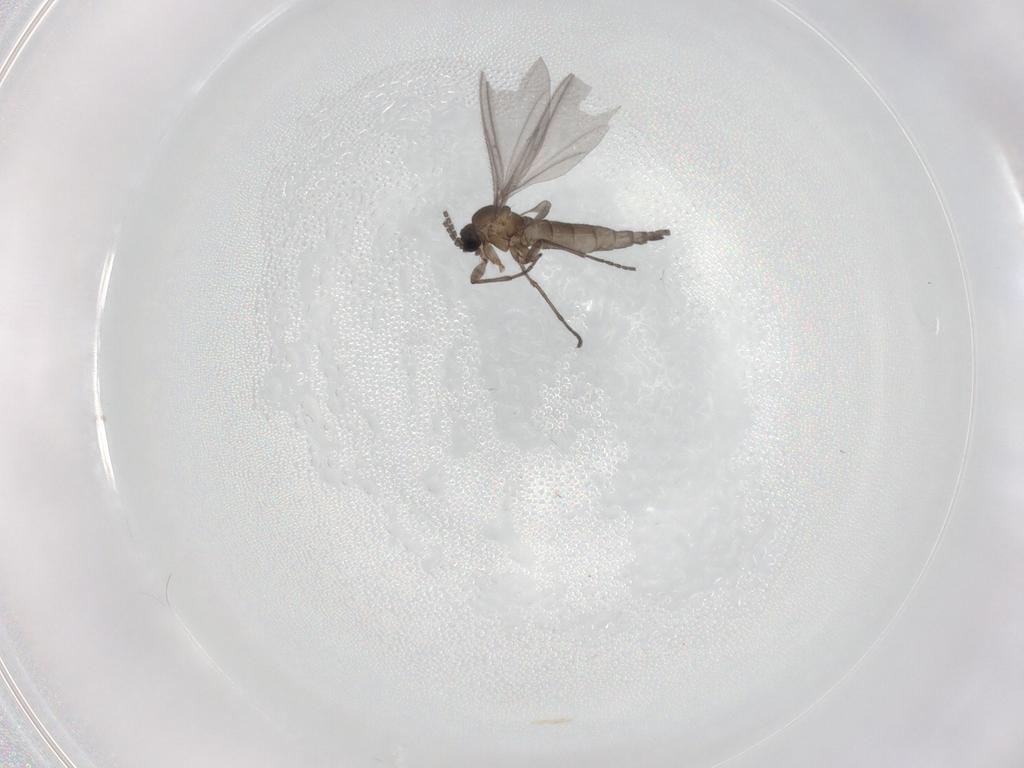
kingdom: Animalia
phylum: Arthropoda
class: Insecta
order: Diptera
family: Sciaridae
